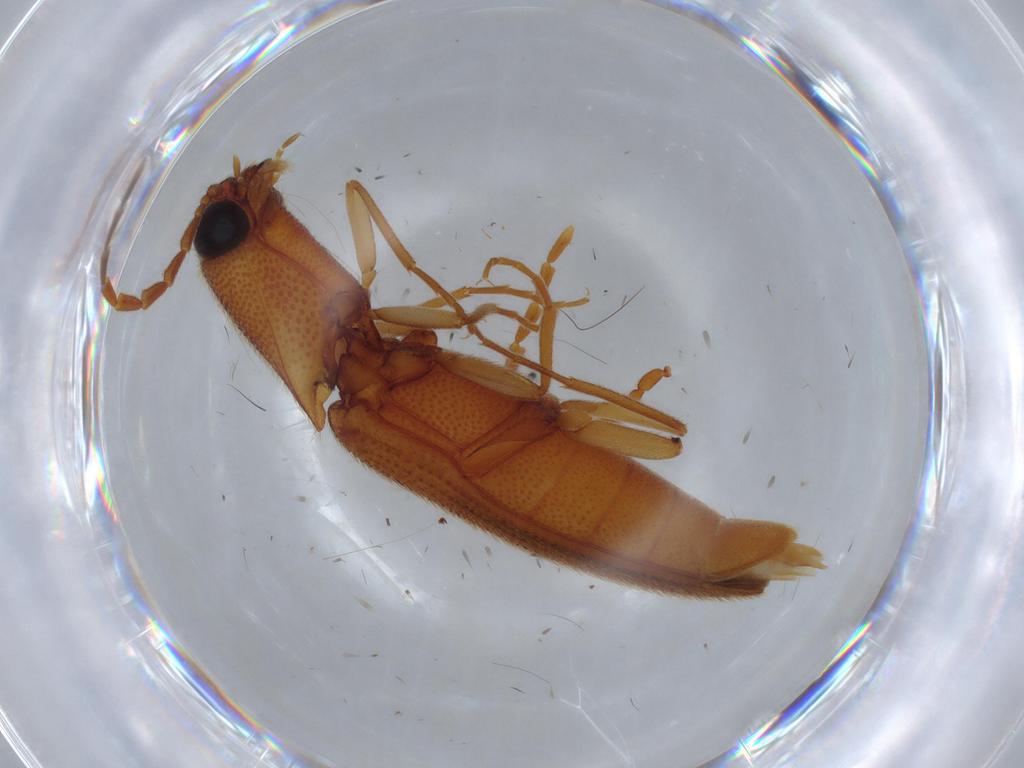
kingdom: Animalia
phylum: Arthropoda
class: Insecta
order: Coleoptera
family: Elateridae
